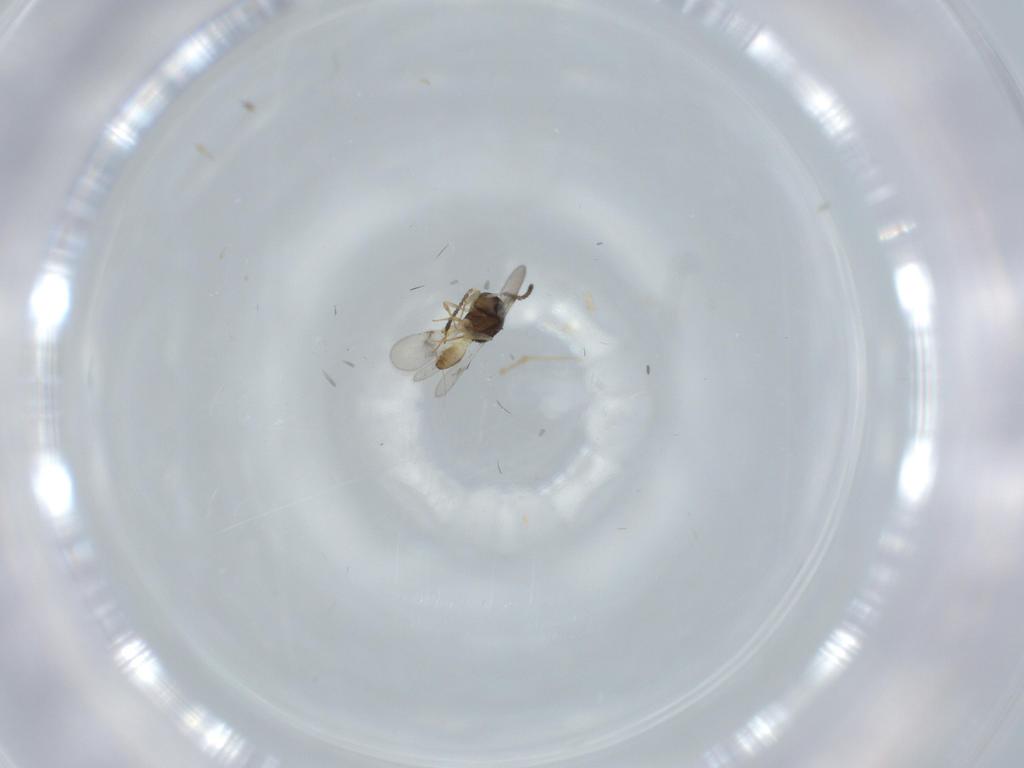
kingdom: Animalia
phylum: Arthropoda
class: Insecta
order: Hymenoptera
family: Scelionidae
